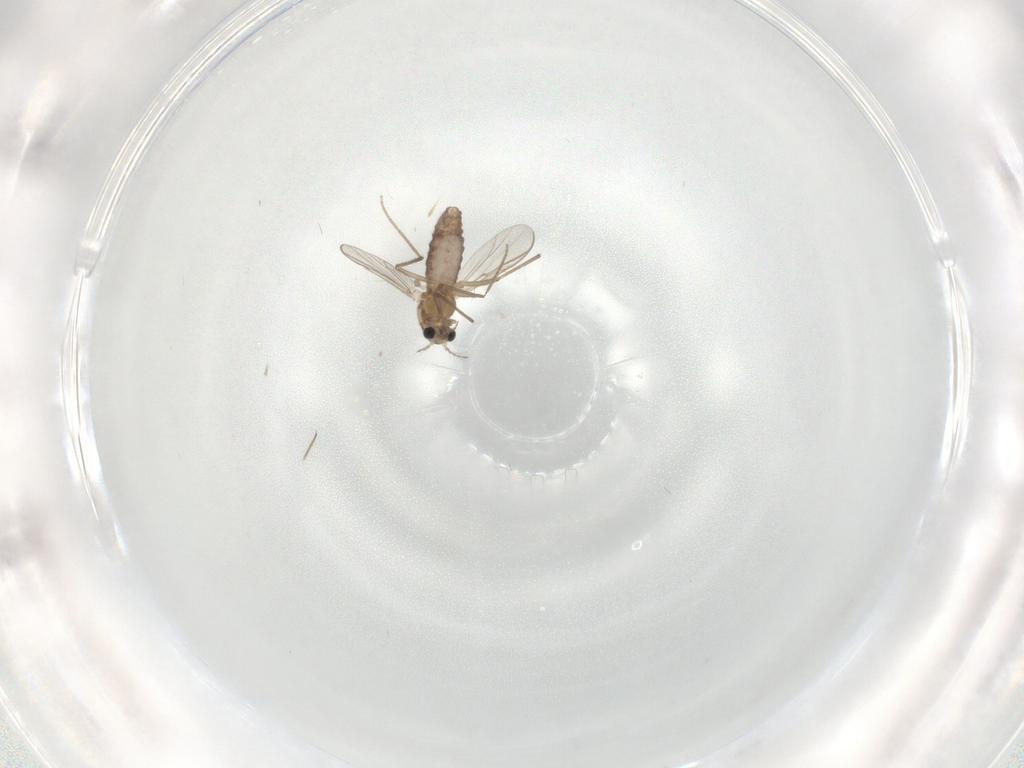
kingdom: Animalia
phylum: Arthropoda
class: Insecta
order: Diptera
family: Chironomidae
